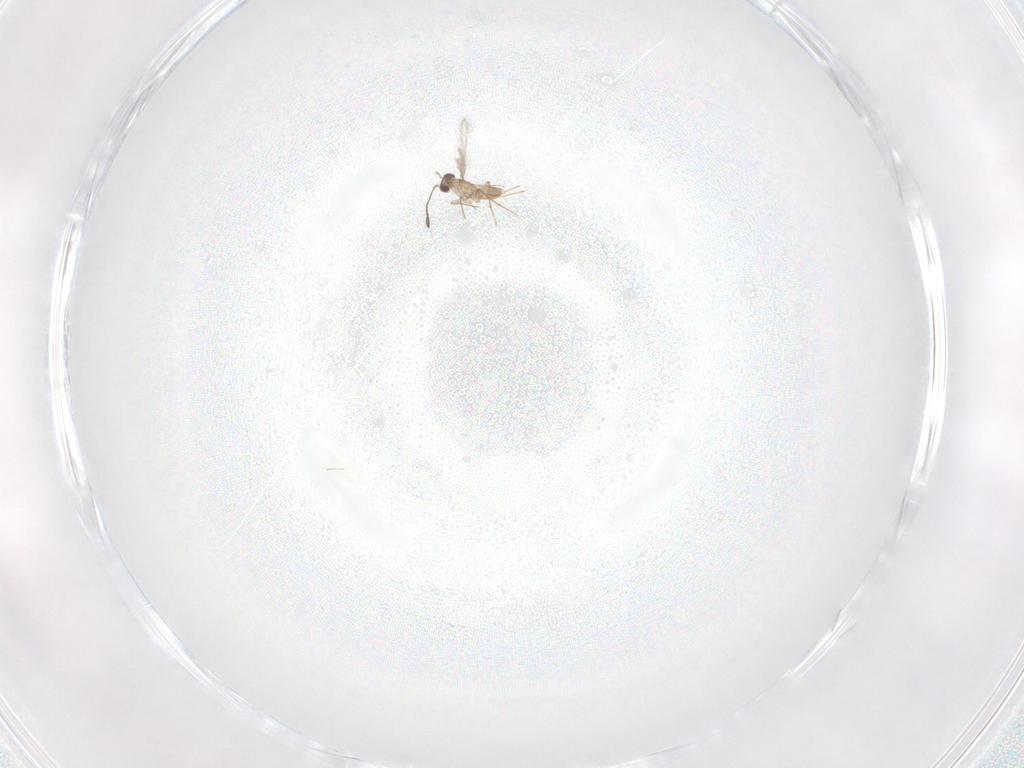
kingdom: Animalia
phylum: Arthropoda
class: Insecta
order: Hymenoptera
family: Mymaridae
